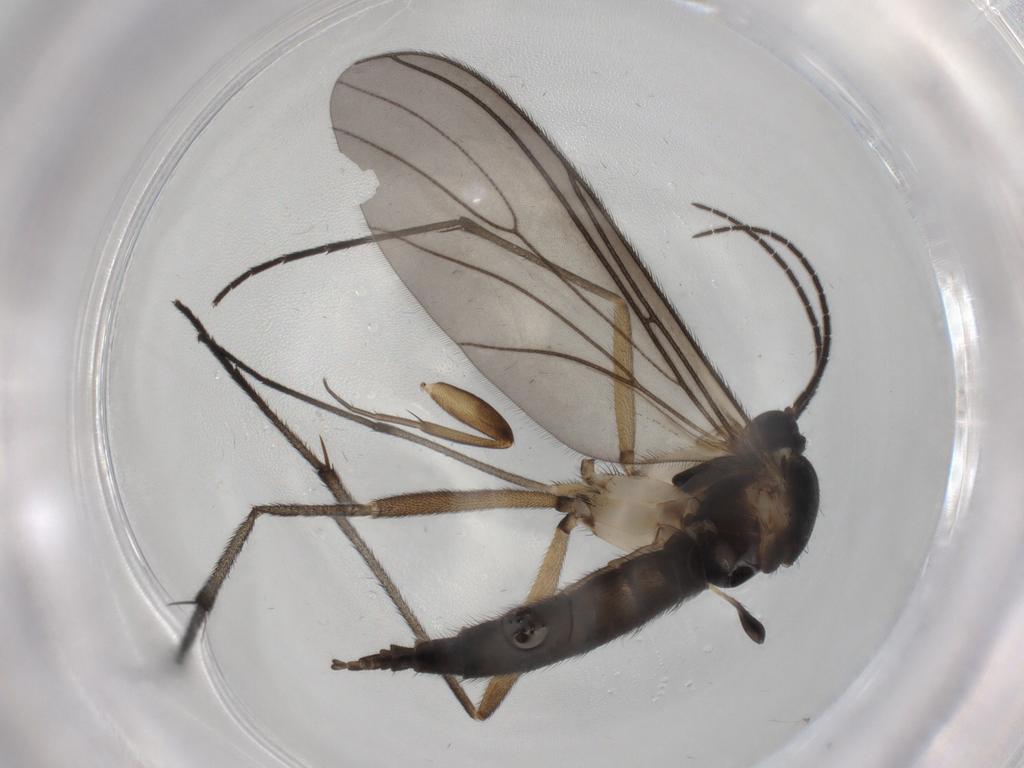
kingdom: Animalia
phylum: Arthropoda
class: Insecta
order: Diptera
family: Sciaridae
